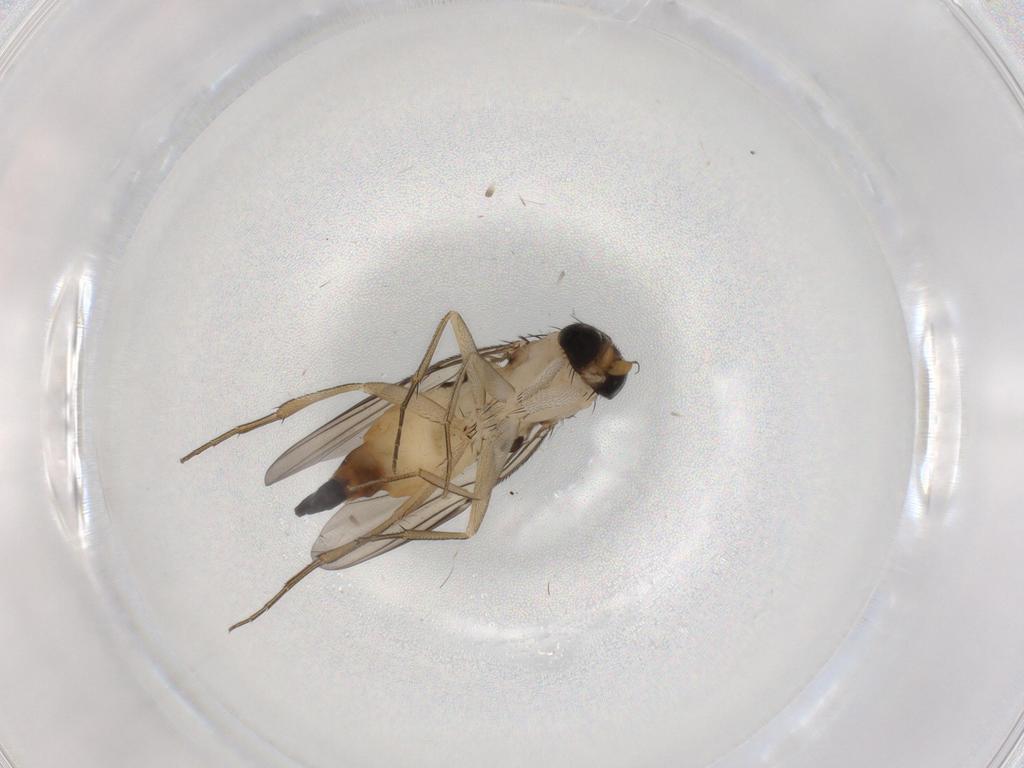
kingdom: Animalia
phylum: Arthropoda
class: Insecta
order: Diptera
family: Phoridae
